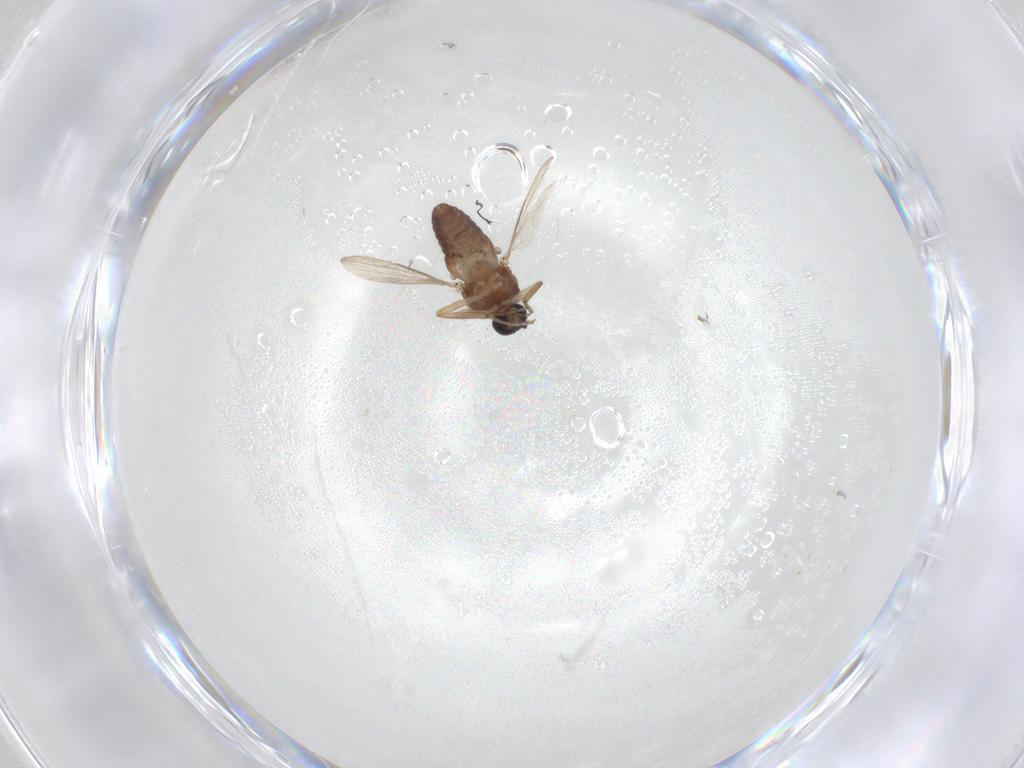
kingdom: Animalia
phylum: Arthropoda
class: Insecta
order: Diptera
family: Ceratopogonidae
